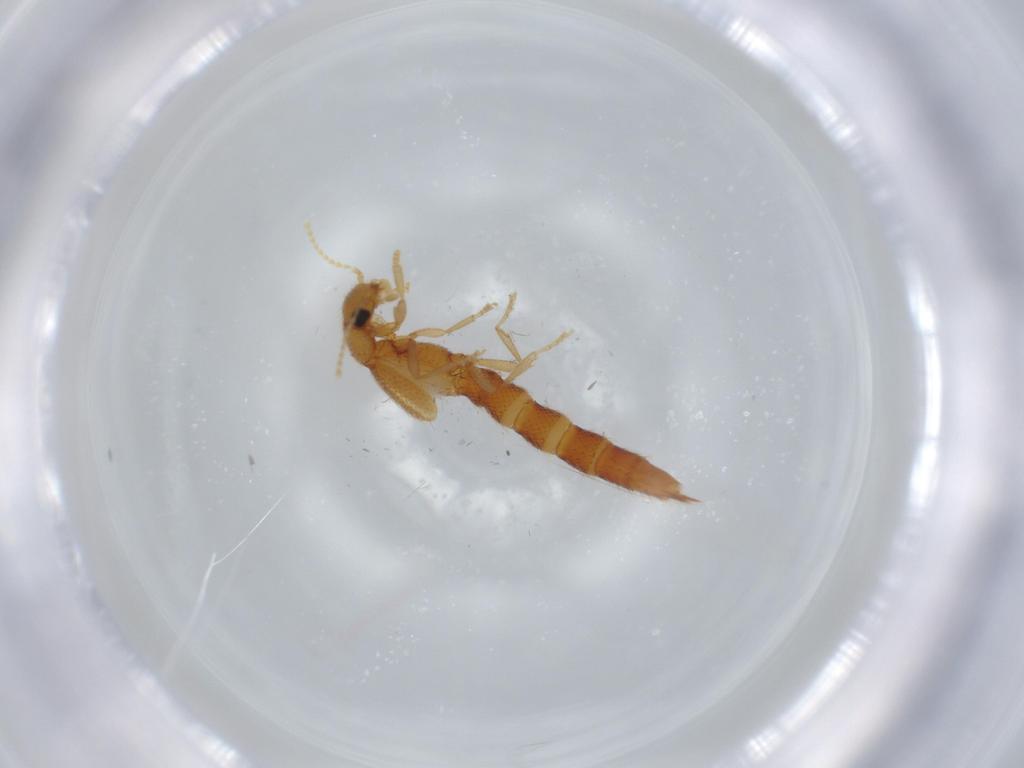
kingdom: Animalia
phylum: Arthropoda
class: Insecta
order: Coleoptera
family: Staphylinidae
